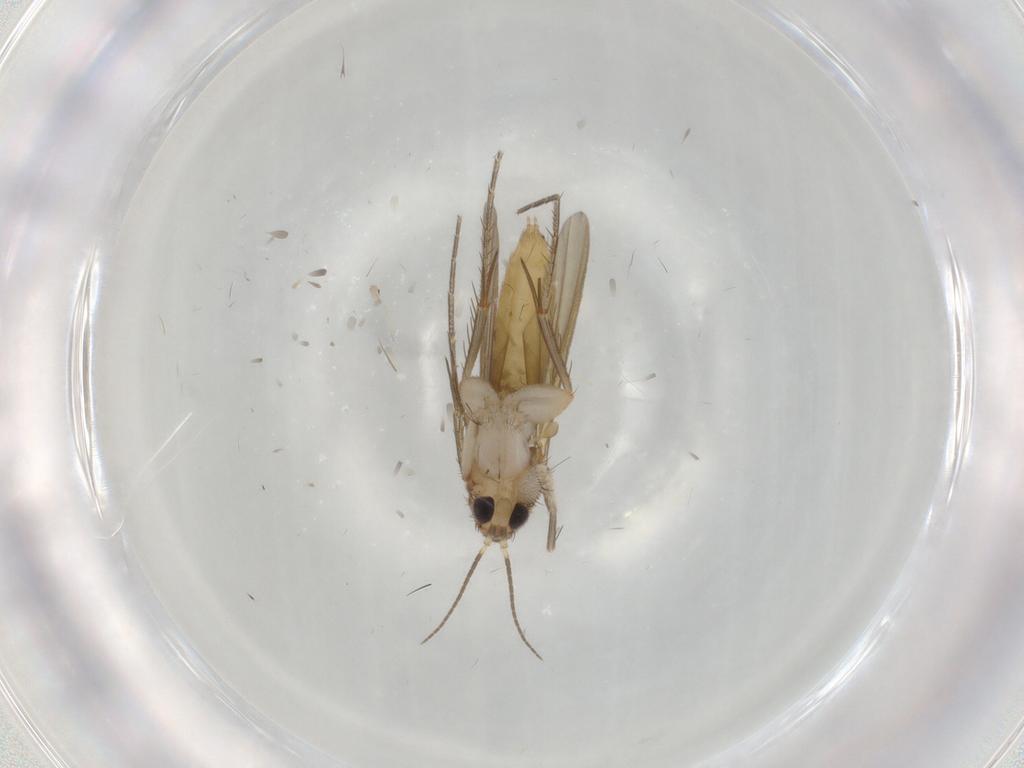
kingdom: Animalia
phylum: Arthropoda
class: Insecta
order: Diptera
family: Mycetophilidae
